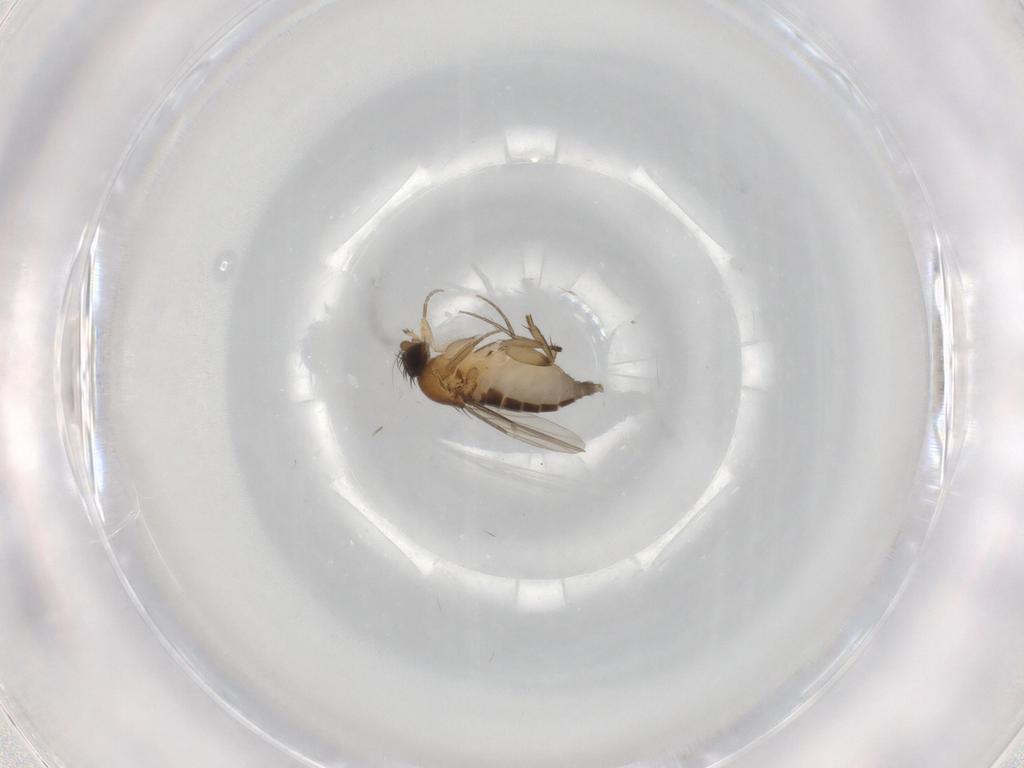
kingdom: Animalia
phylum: Arthropoda
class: Insecta
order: Diptera
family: Phoridae
